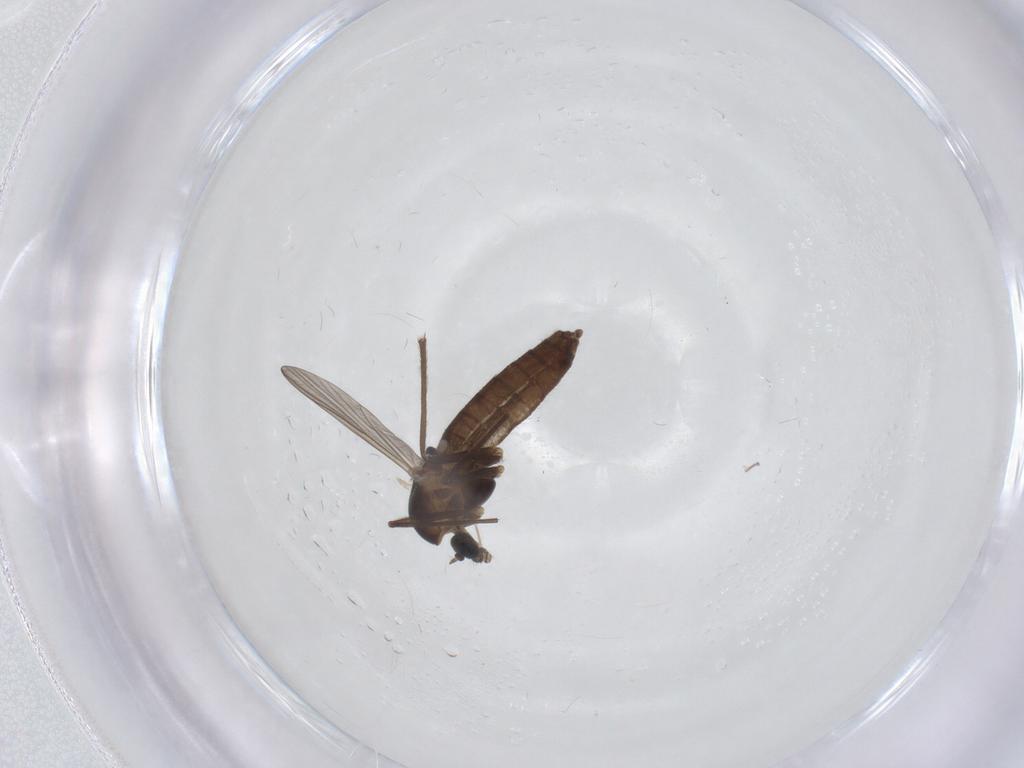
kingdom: Animalia
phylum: Arthropoda
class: Insecta
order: Diptera
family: Chironomidae
